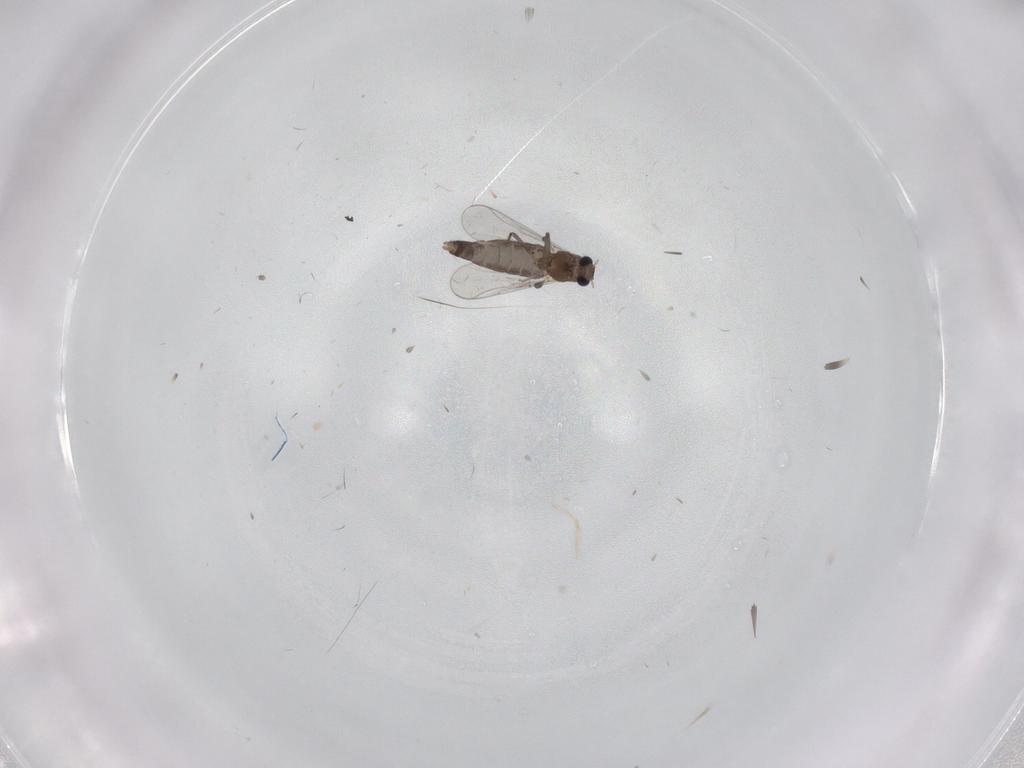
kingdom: Animalia
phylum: Arthropoda
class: Insecta
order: Diptera
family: Chironomidae
